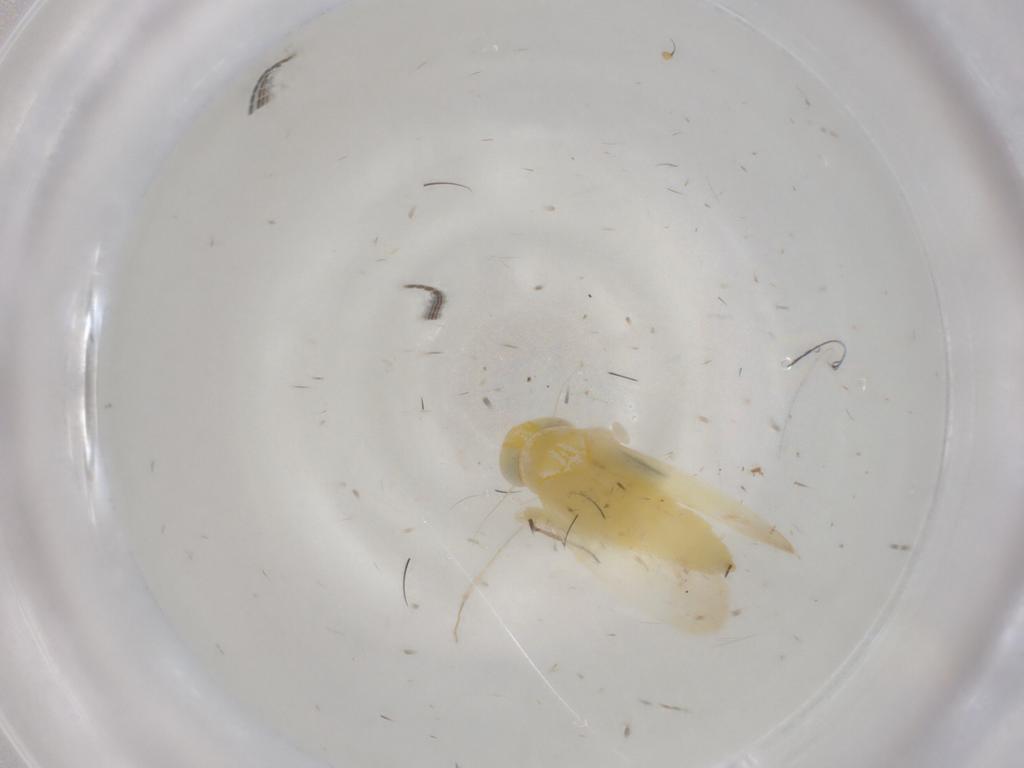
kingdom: Animalia
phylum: Arthropoda
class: Insecta
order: Hemiptera
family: Cicadellidae
